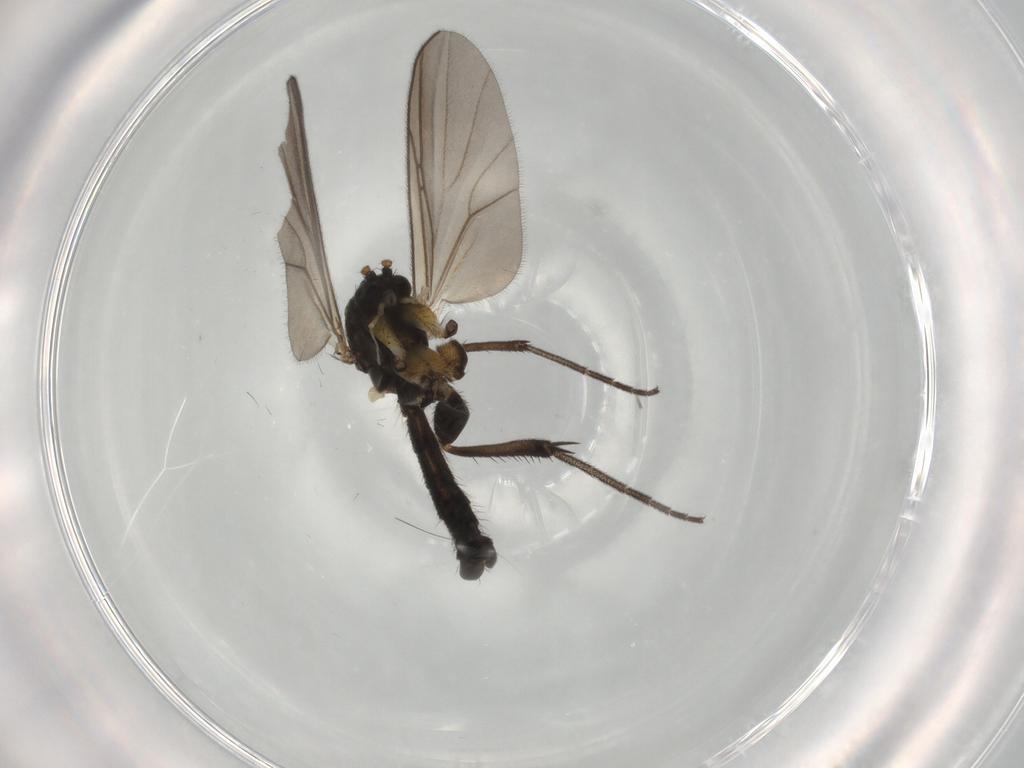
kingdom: Animalia
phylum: Arthropoda
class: Insecta
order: Diptera
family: Mycetophilidae
